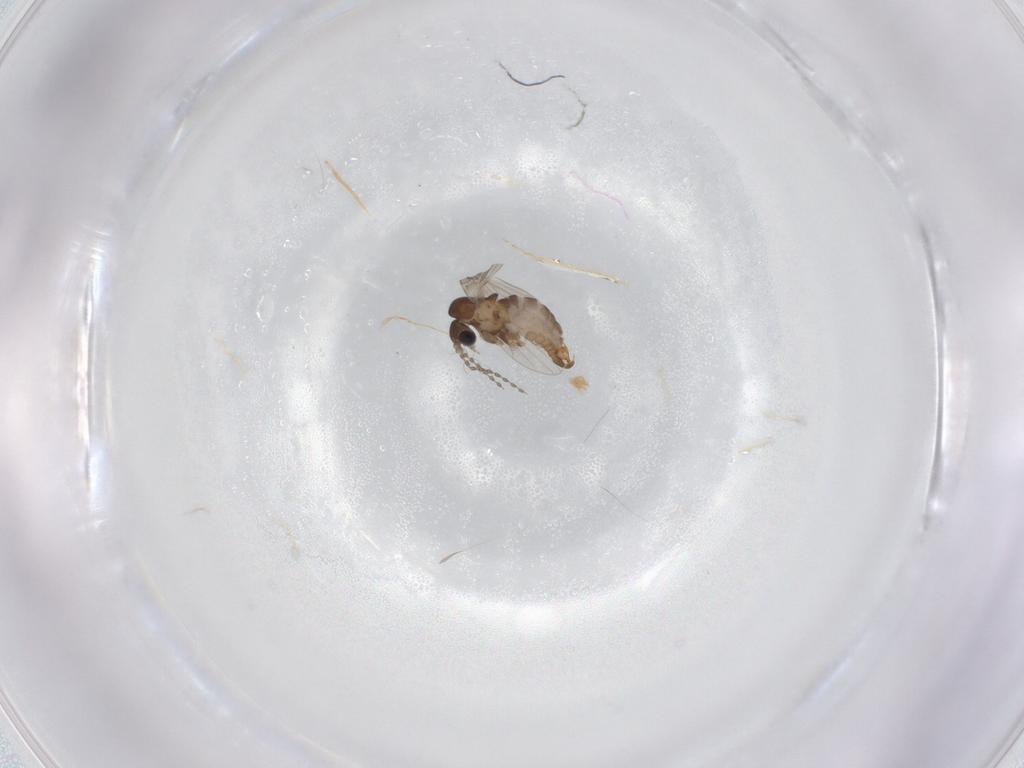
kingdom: Animalia
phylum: Arthropoda
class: Insecta
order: Diptera
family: Psychodidae
